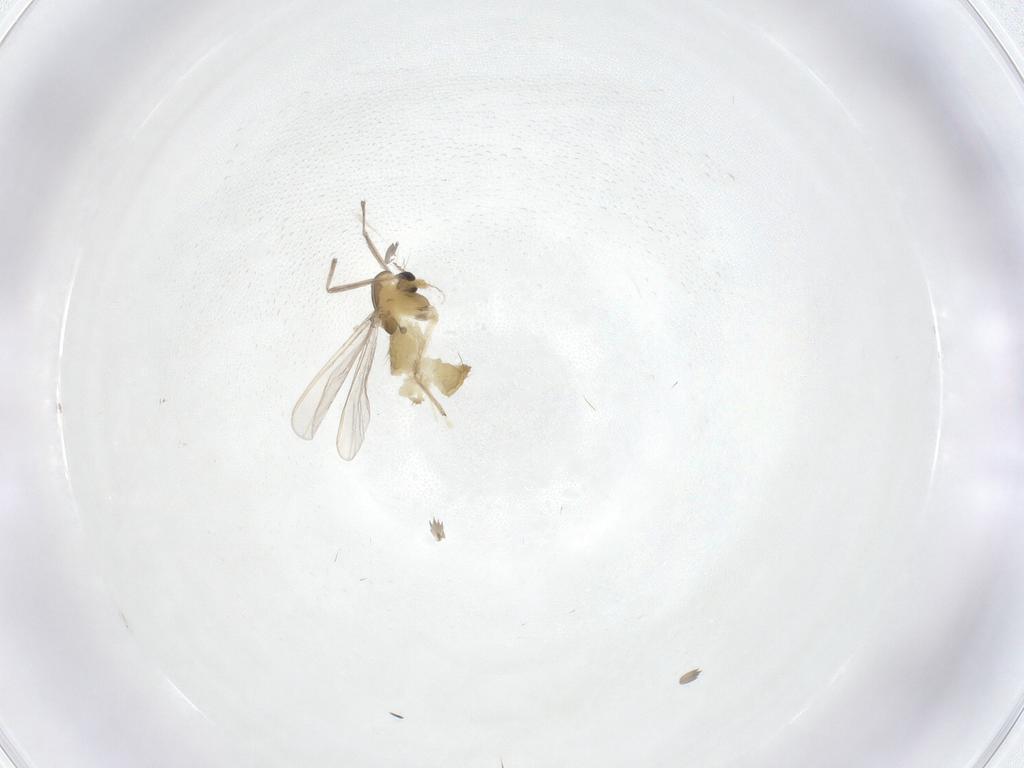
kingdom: Animalia
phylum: Arthropoda
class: Insecta
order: Diptera
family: Chironomidae
